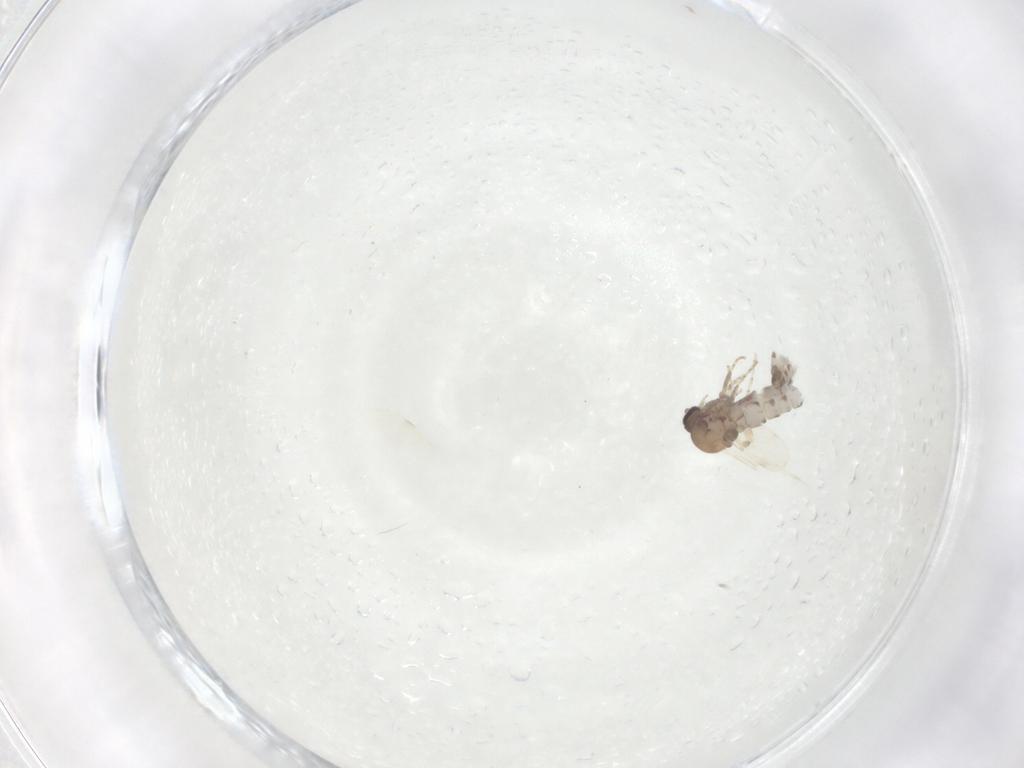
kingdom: Animalia
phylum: Arthropoda
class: Insecta
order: Diptera
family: Ceratopogonidae
